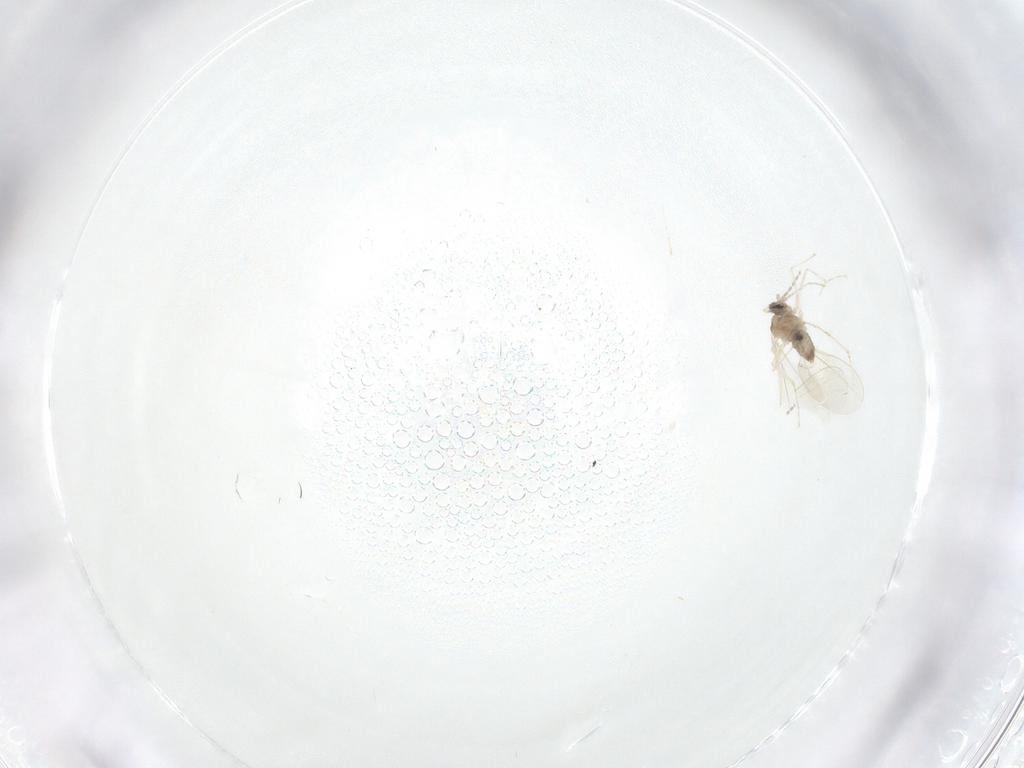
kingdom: Animalia
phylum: Arthropoda
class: Insecta
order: Diptera
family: Cecidomyiidae
